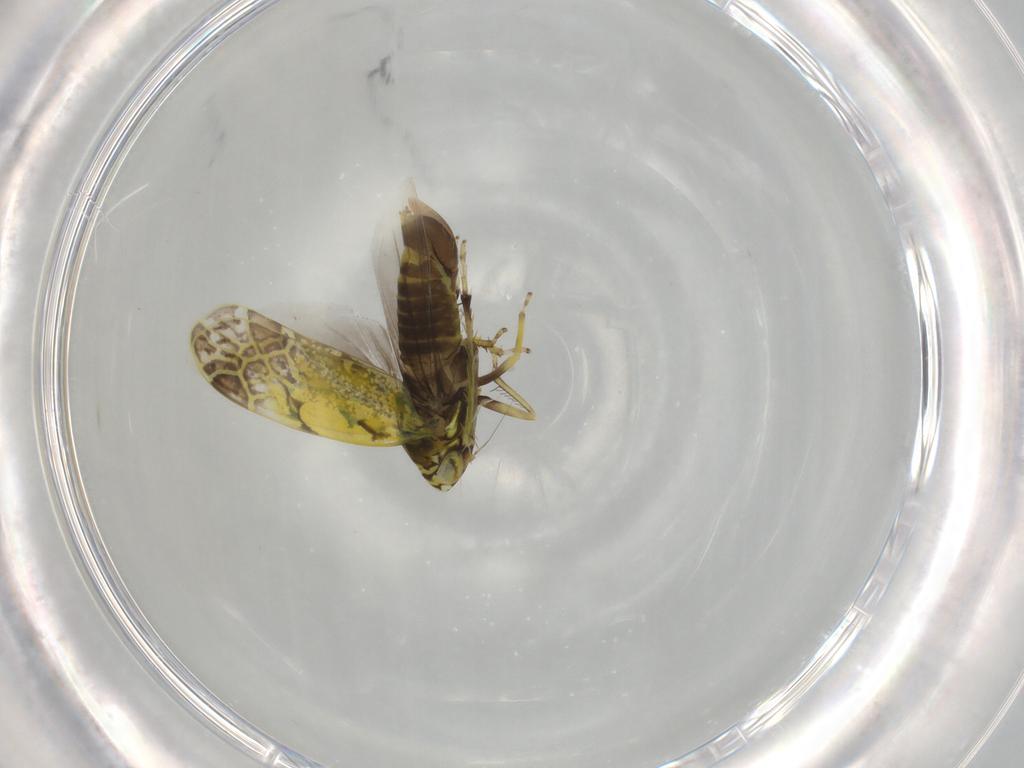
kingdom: Animalia
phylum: Arthropoda
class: Insecta
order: Hemiptera
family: Cicadellidae
